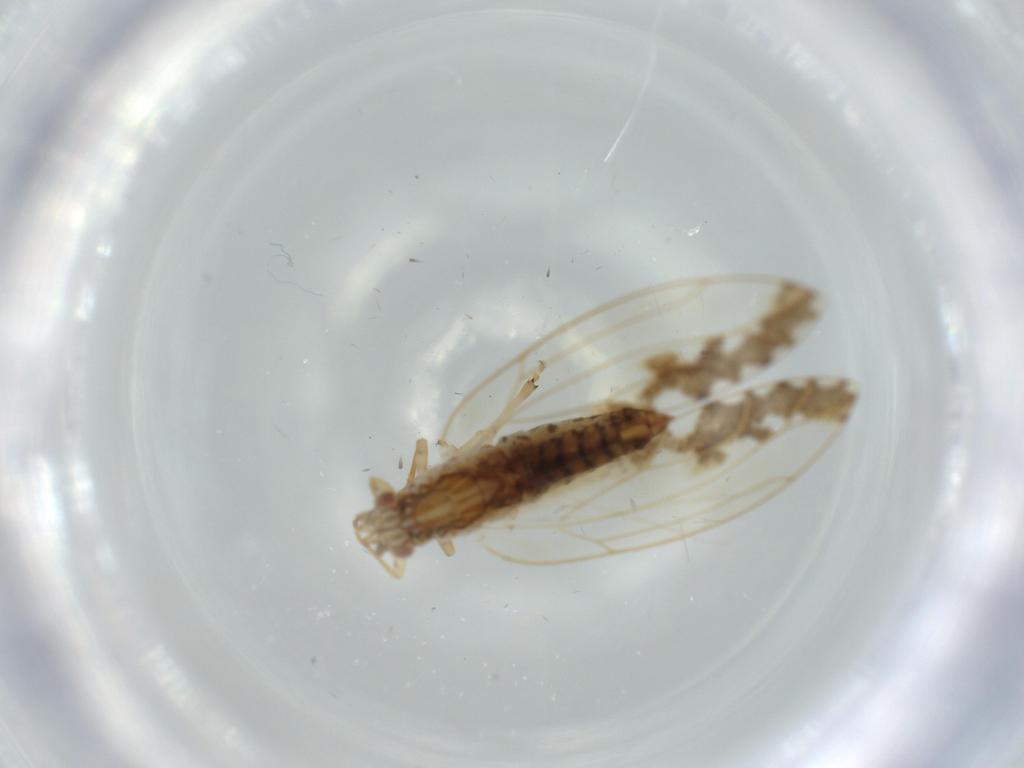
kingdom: Animalia
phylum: Arthropoda
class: Insecta
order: Hemiptera
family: Triozidae
